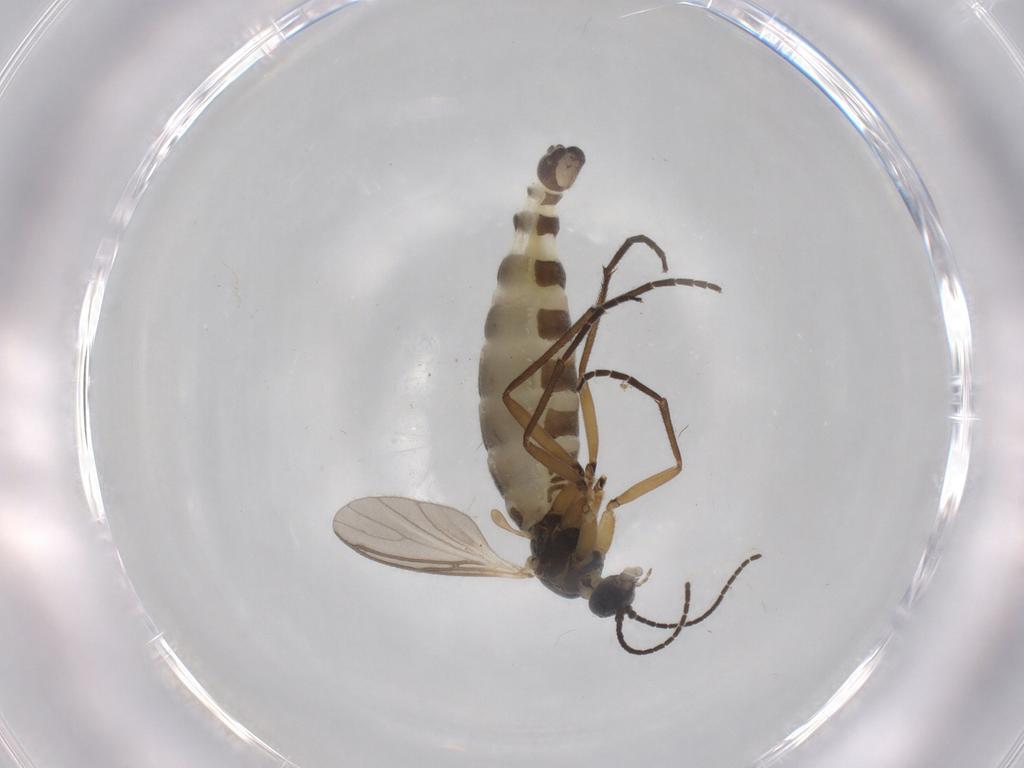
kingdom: Animalia
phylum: Arthropoda
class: Insecta
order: Diptera
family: Sciaridae
